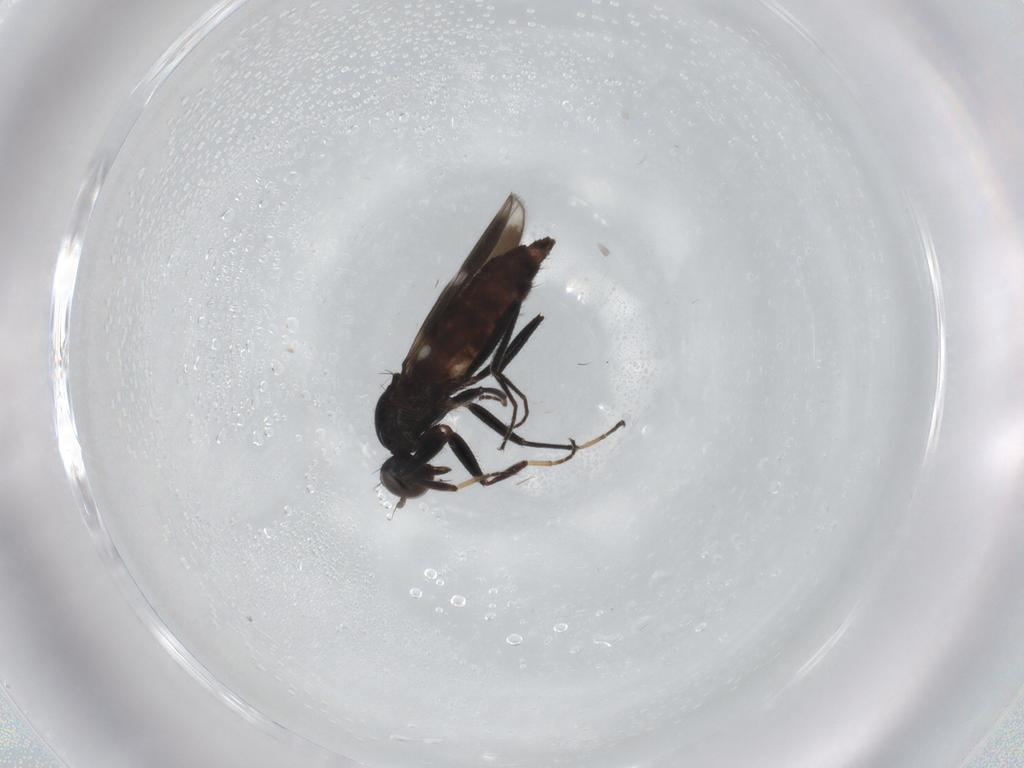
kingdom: Animalia
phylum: Arthropoda
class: Insecta
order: Diptera
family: Hybotidae
